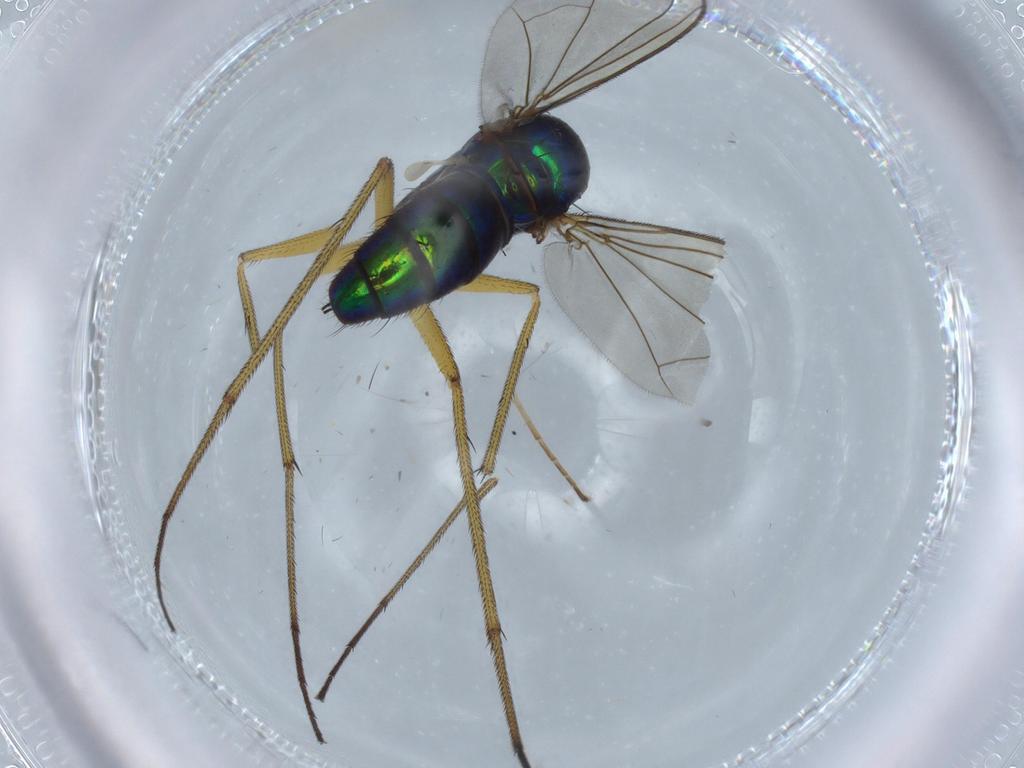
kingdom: Animalia
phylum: Arthropoda
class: Insecta
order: Diptera
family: Dolichopodidae
